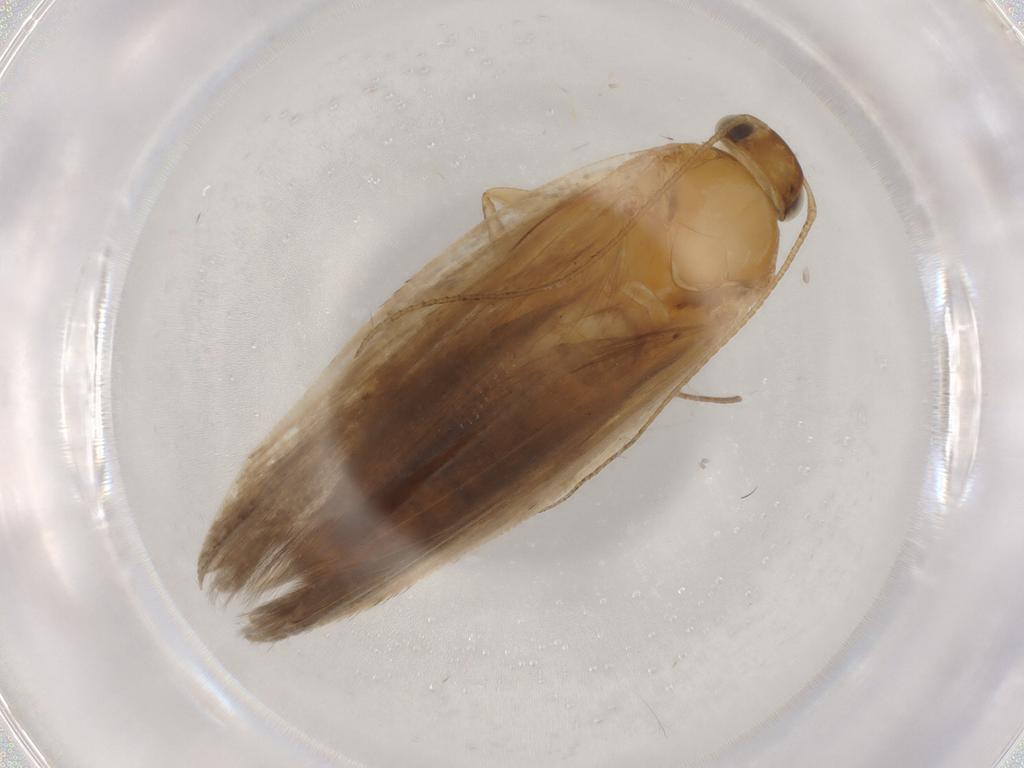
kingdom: Animalia
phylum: Arthropoda
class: Insecta
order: Lepidoptera
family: Gelechiidae
